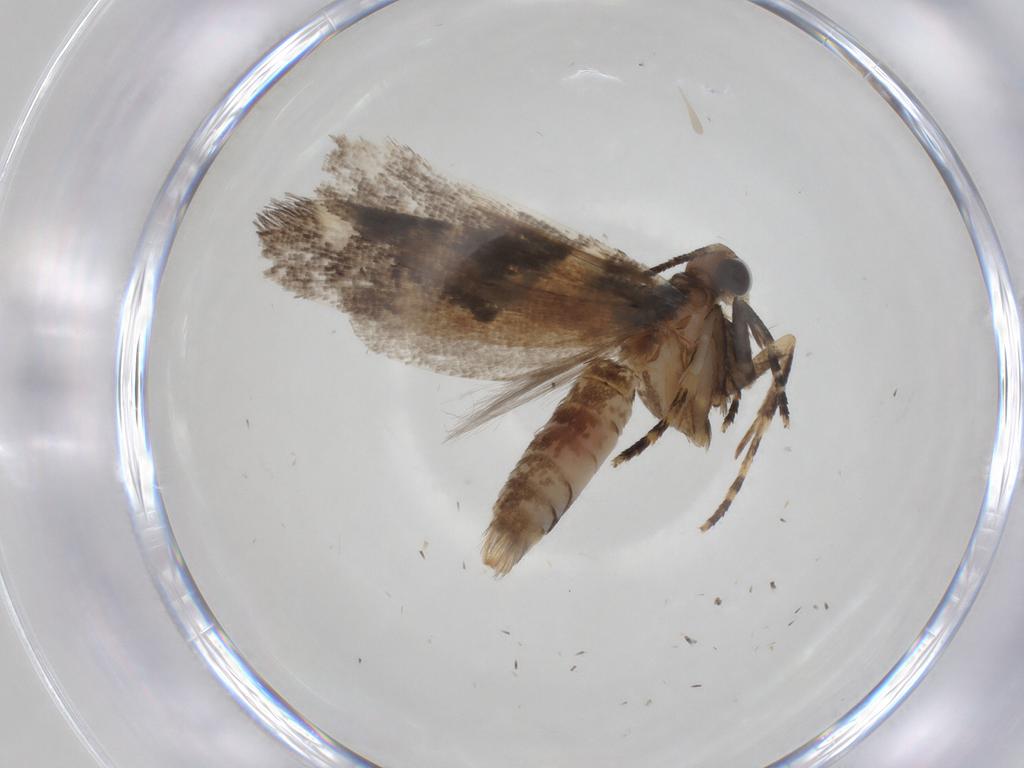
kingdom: Animalia
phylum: Arthropoda
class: Insecta
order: Lepidoptera
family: Gelechiidae
